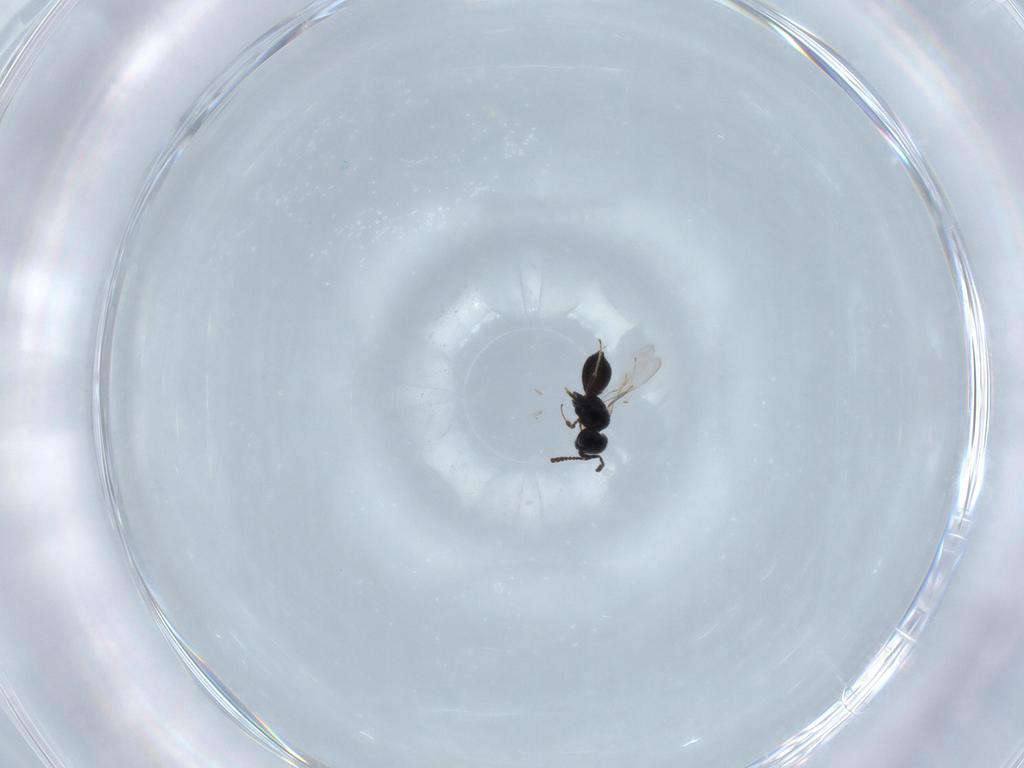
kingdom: Animalia
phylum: Arthropoda
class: Insecta
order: Hymenoptera
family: Scelionidae
